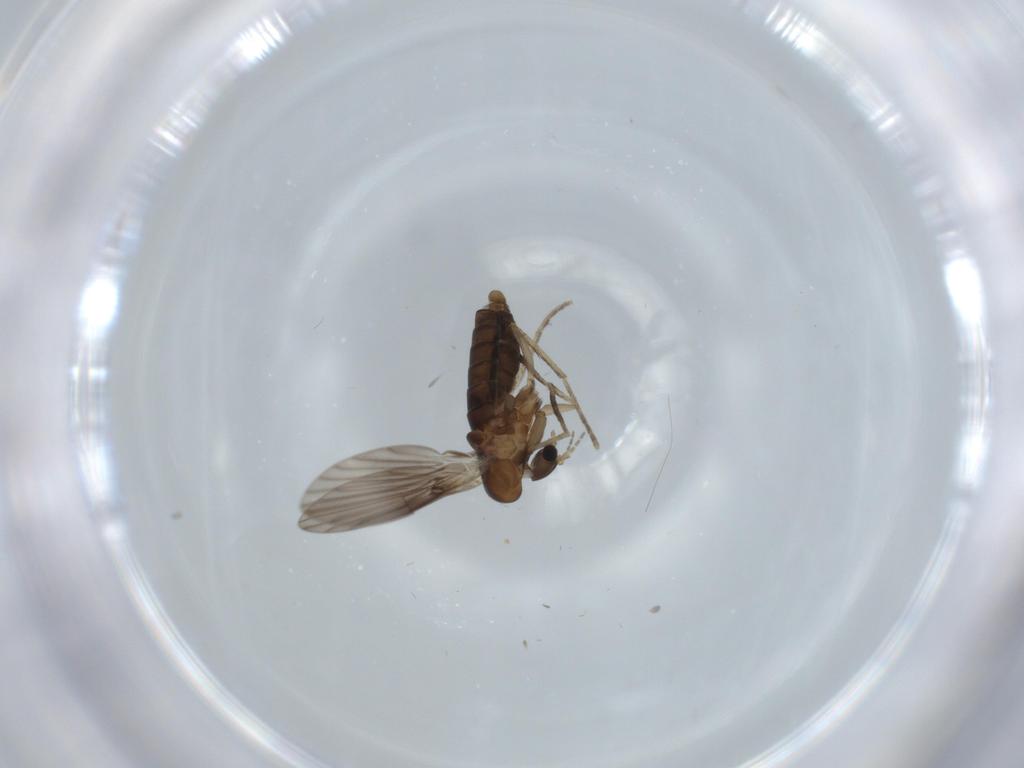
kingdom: Animalia
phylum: Arthropoda
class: Insecta
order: Diptera
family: Psychodidae
